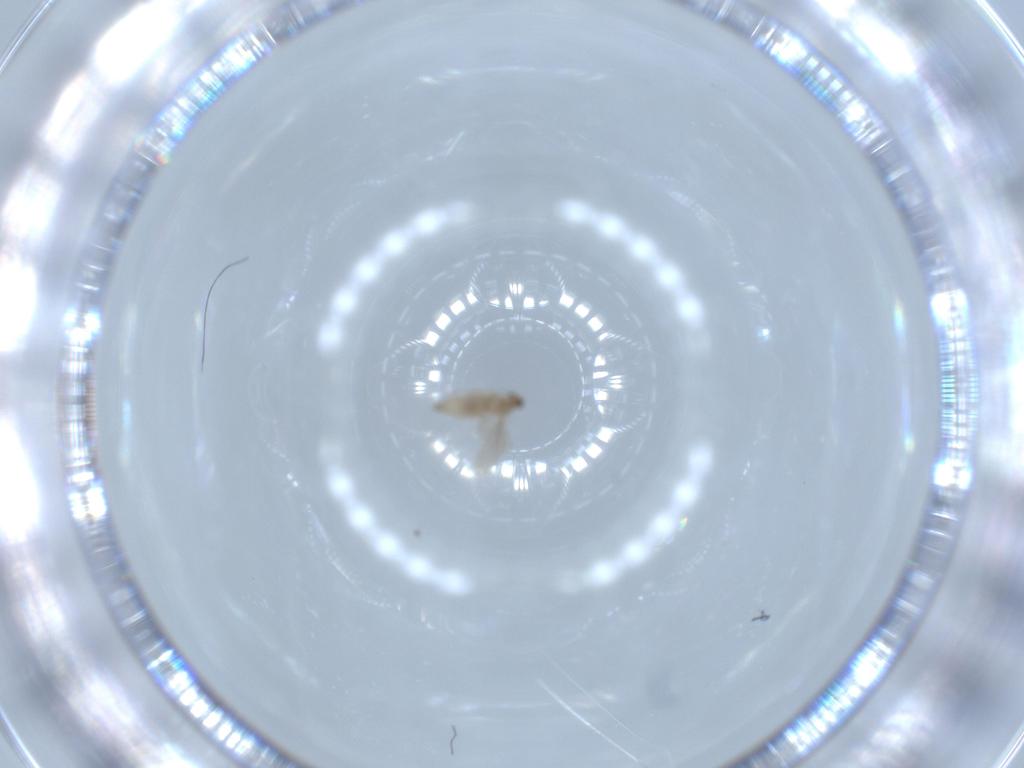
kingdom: Animalia
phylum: Arthropoda
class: Insecta
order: Diptera
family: Cecidomyiidae
